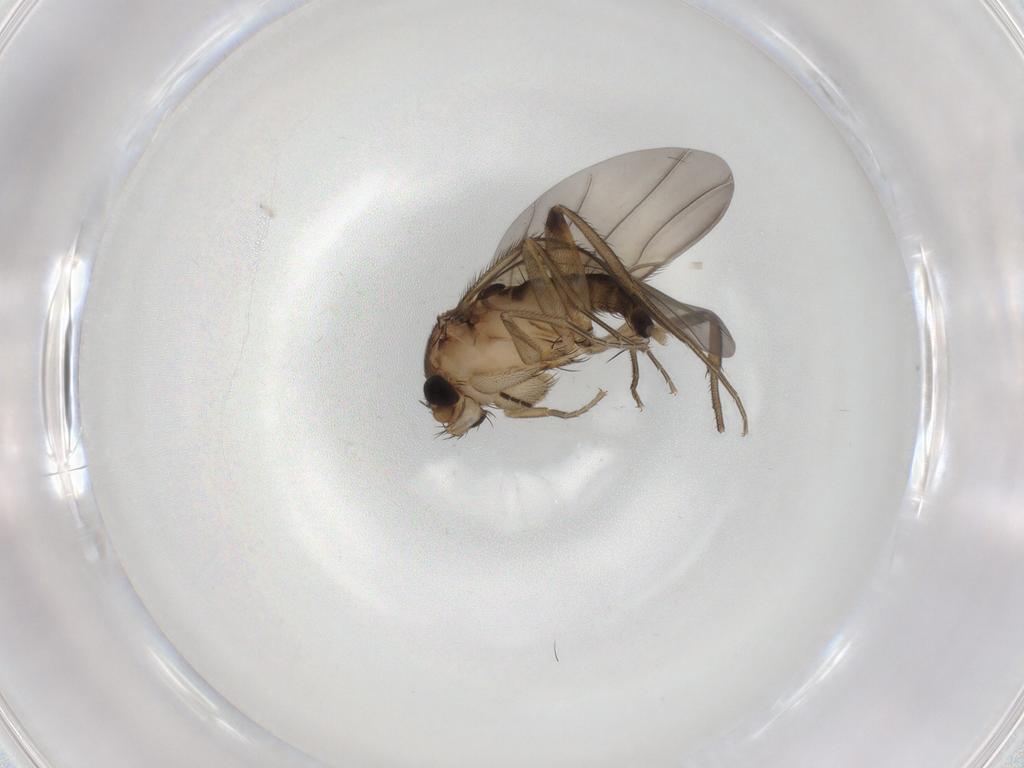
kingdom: Animalia
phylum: Arthropoda
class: Insecta
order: Diptera
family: Phoridae
